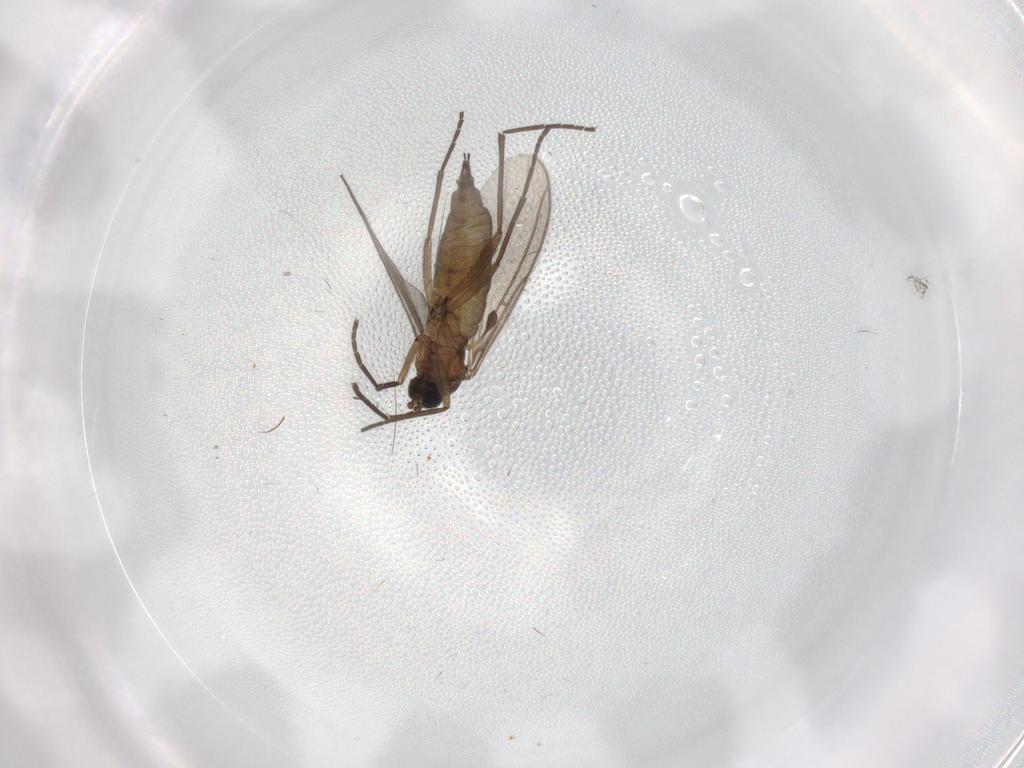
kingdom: Animalia
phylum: Arthropoda
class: Insecta
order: Diptera
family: Sciaridae
